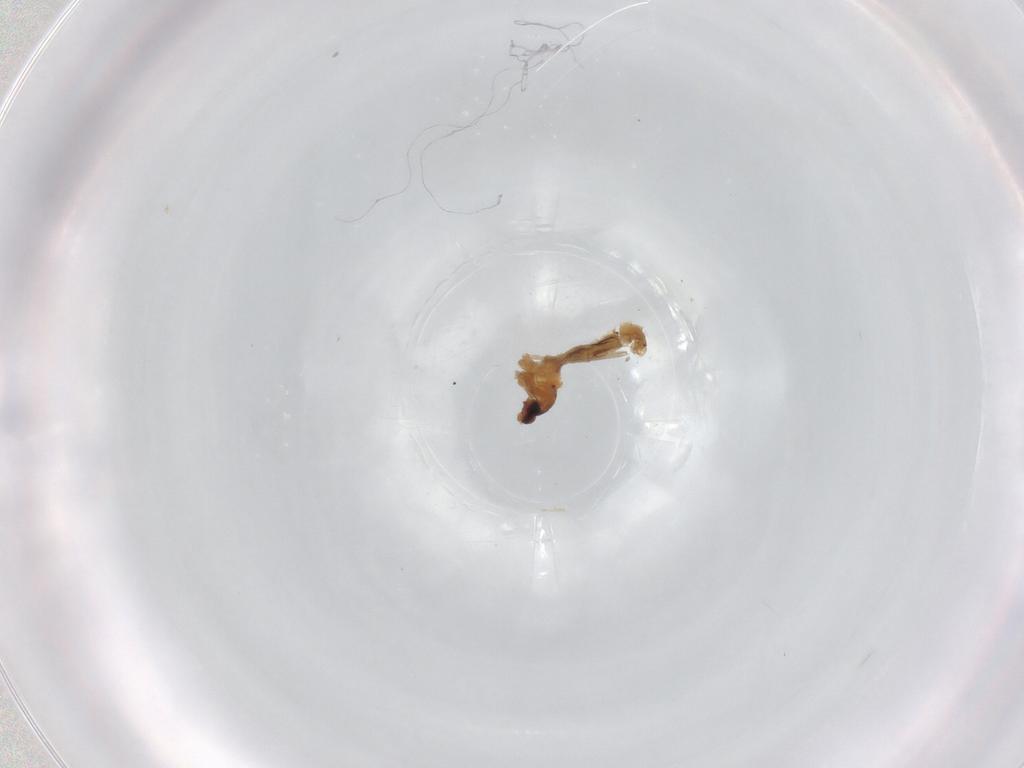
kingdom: Animalia
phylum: Arthropoda
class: Insecta
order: Diptera
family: Cecidomyiidae
